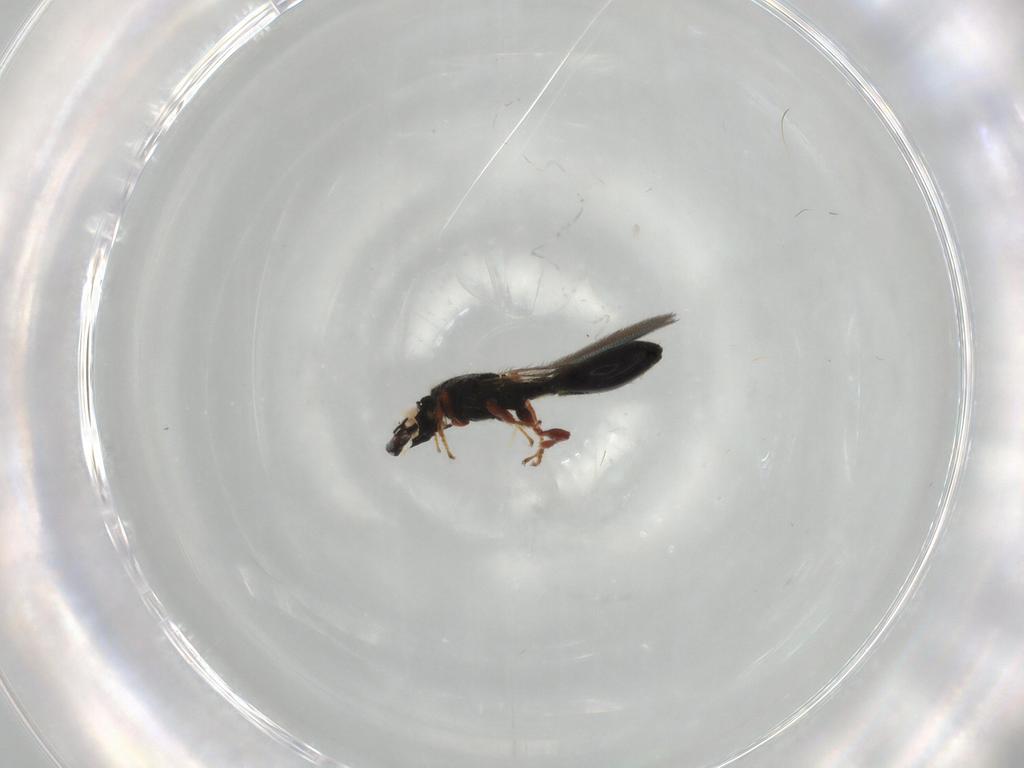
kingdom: Animalia
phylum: Arthropoda
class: Insecta
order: Hymenoptera
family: Diapriidae
